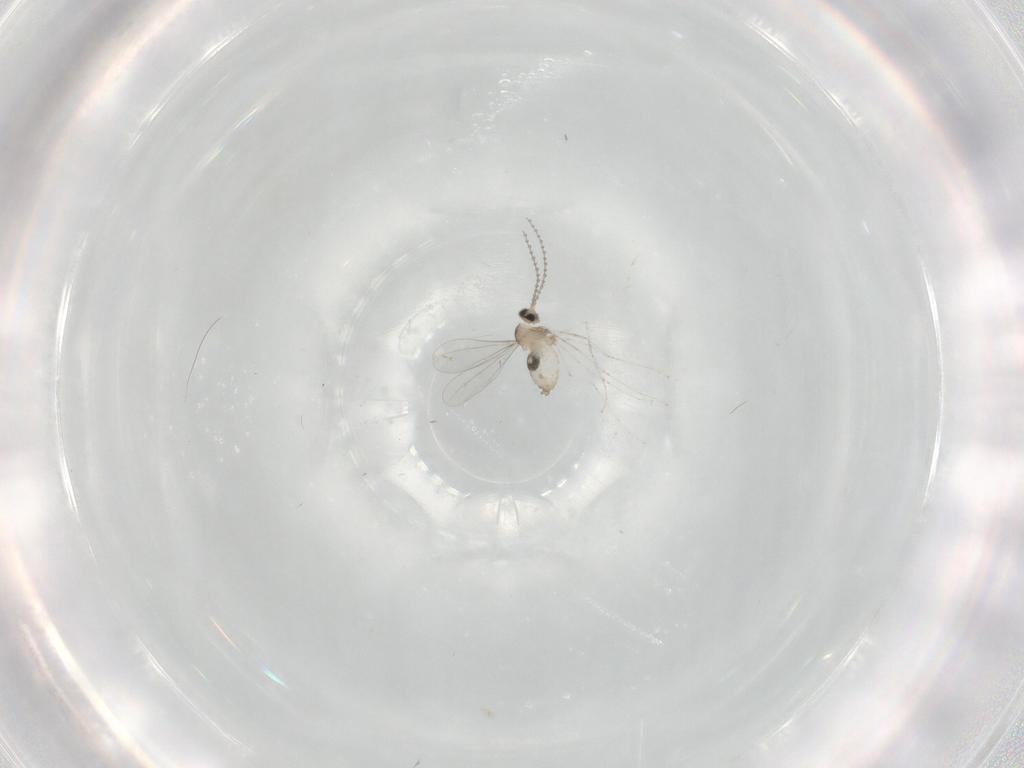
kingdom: Animalia
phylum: Arthropoda
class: Insecta
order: Diptera
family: Cecidomyiidae
